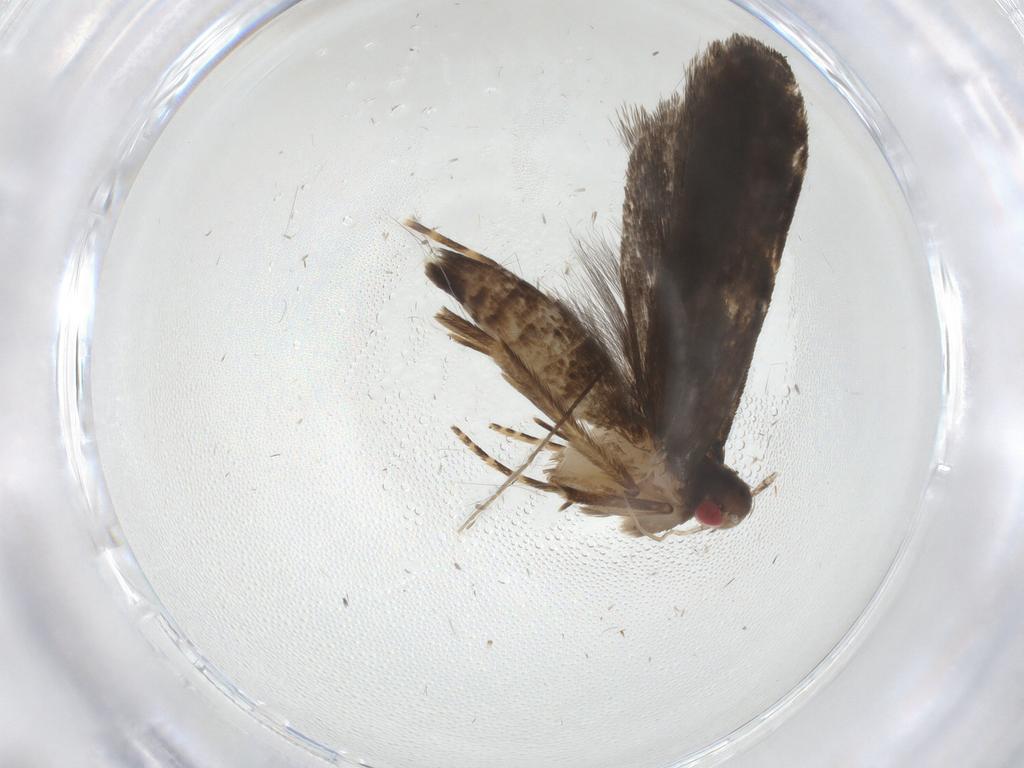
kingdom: Animalia
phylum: Arthropoda
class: Insecta
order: Lepidoptera
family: Gelechiidae
